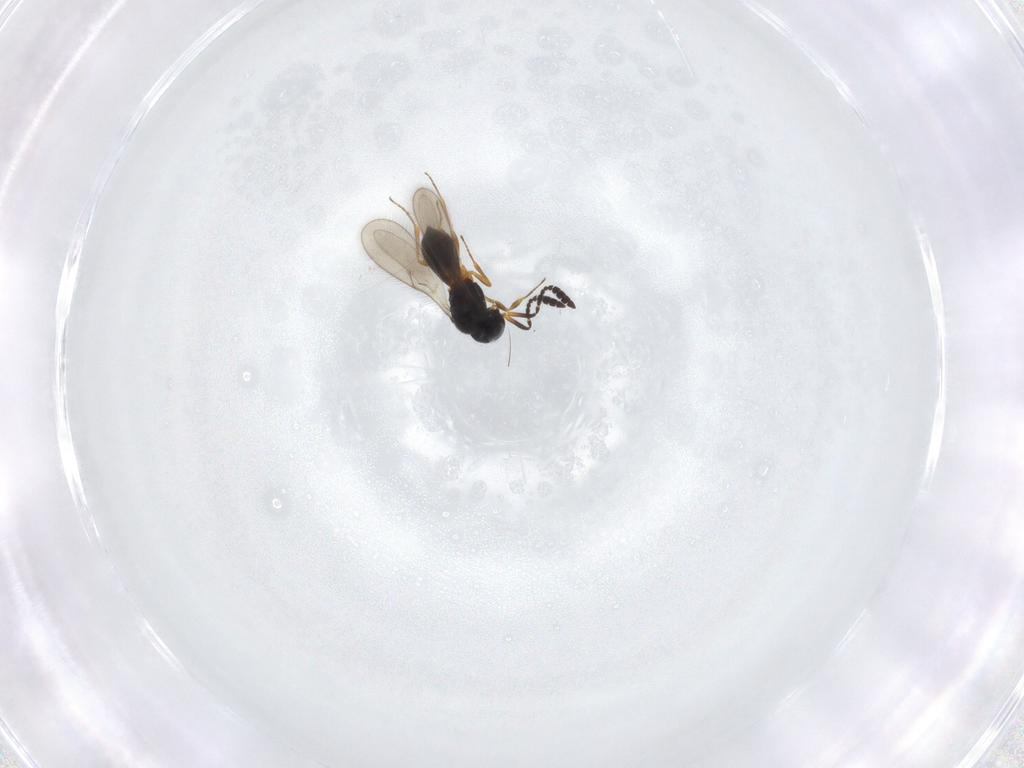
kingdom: Animalia
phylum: Arthropoda
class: Insecta
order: Hymenoptera
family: Scelionidae
